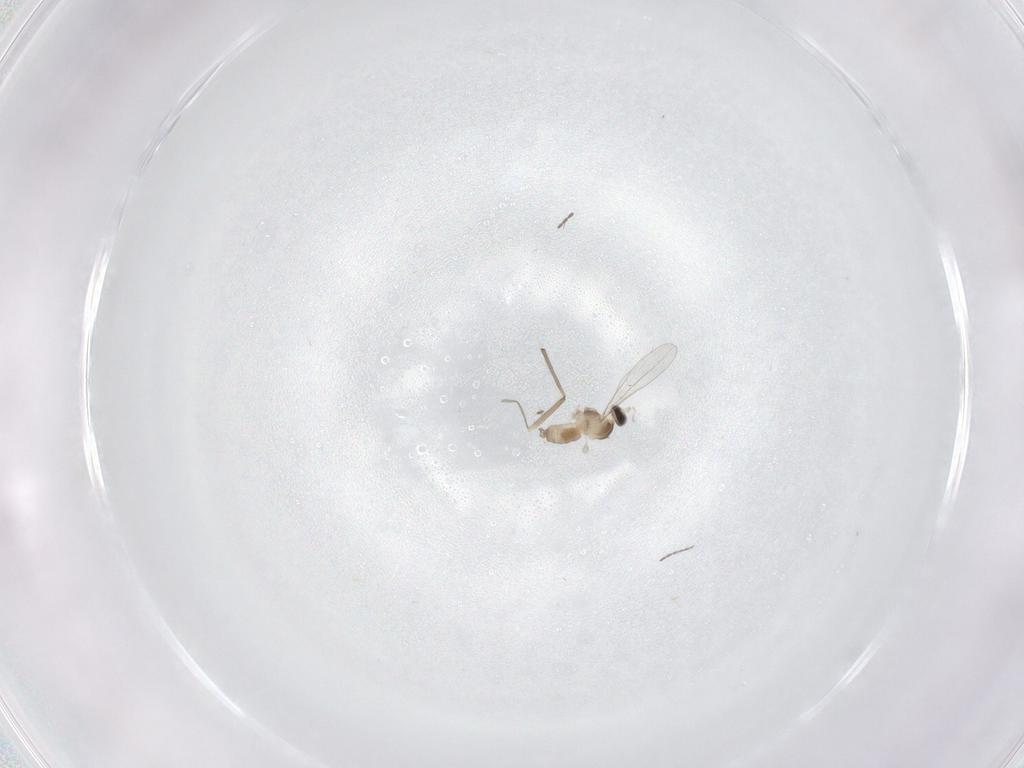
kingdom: Animalia
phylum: Arthropoda
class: Insecta
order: Diptera
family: Cecidomyiidae
